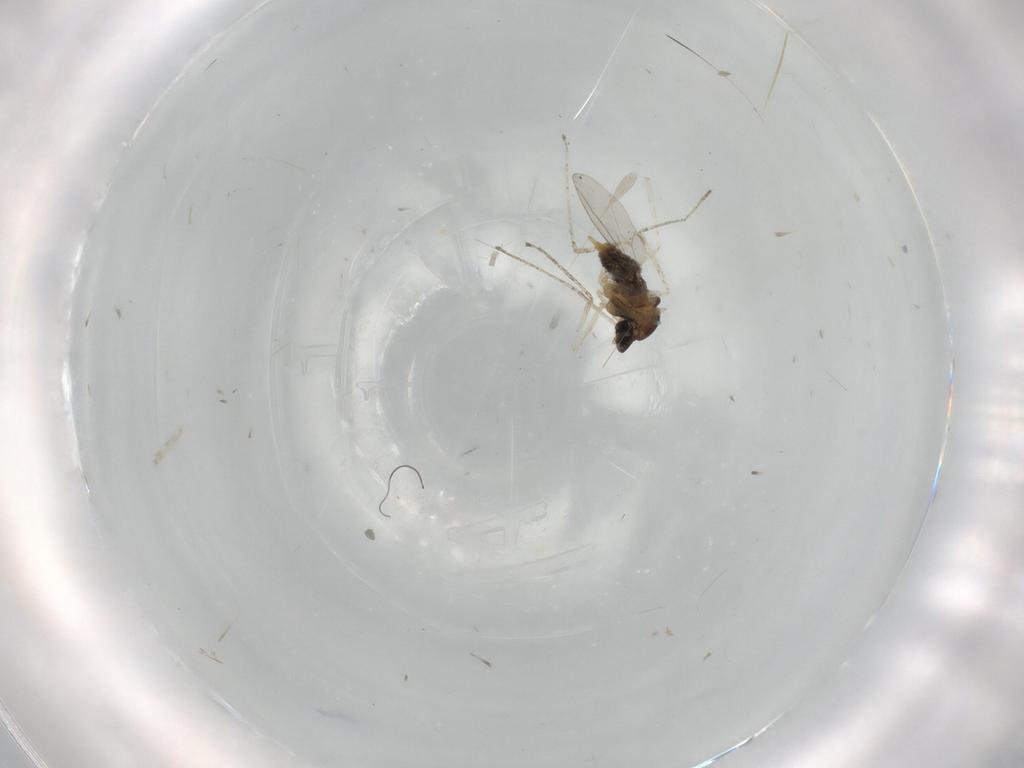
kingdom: Animalia
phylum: Arthropoda
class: Insecta
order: Diptera
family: Cecidomyiidae
